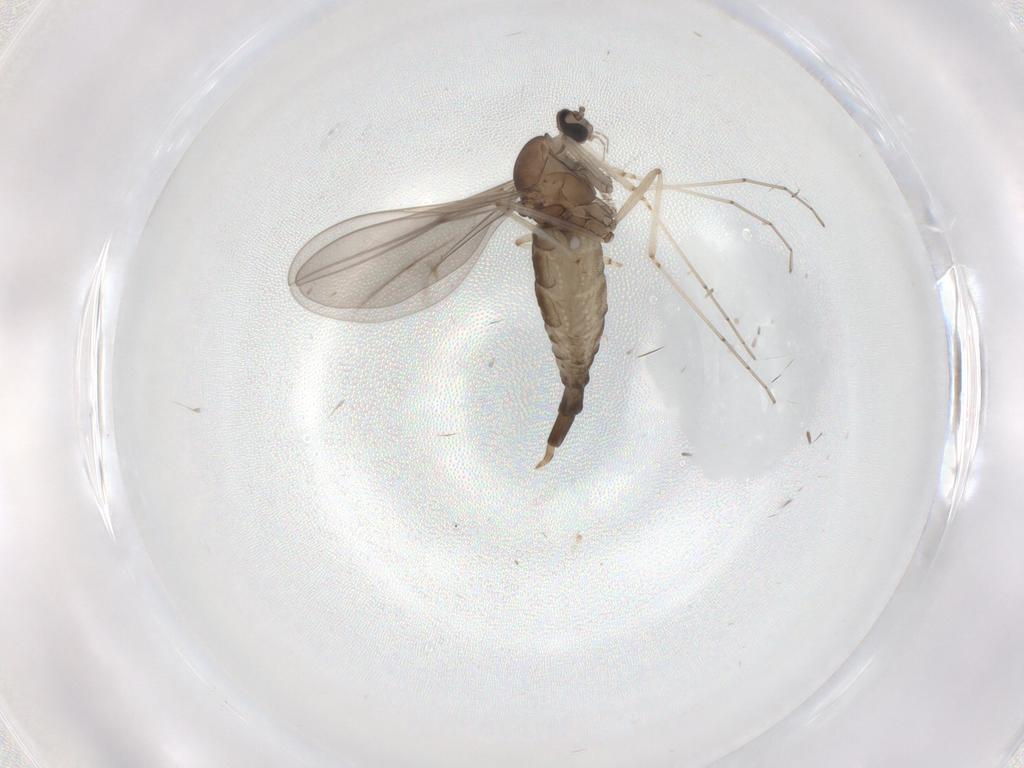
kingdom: Animalia
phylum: Arthropoda
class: Insecta
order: Diptera
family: Cecidomyiidae
